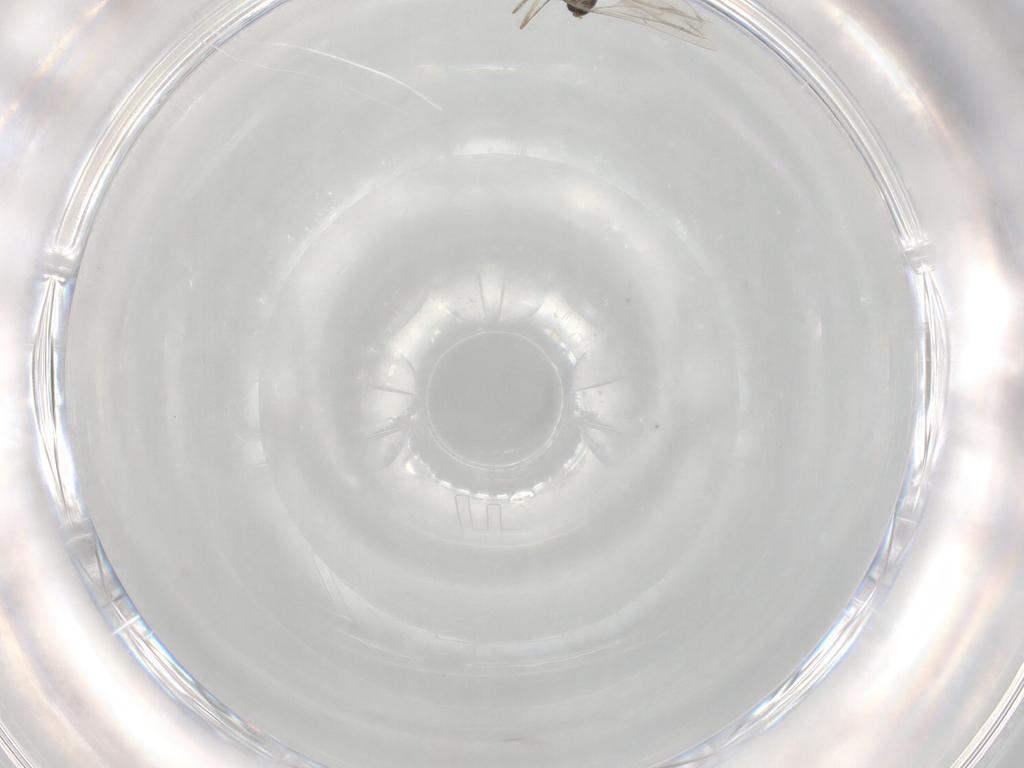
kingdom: Animalia
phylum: Arthropoda
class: Insecta
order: Diptera
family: Cecidomyiidae
